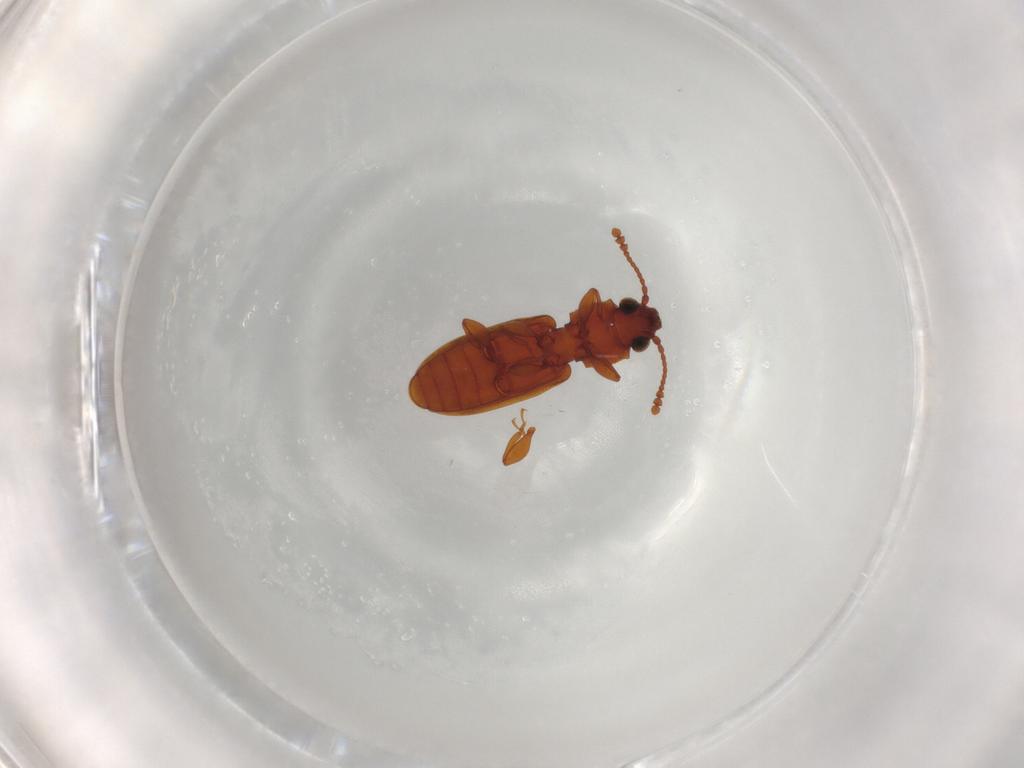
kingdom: Animalia
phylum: Arthropoda
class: Insecta
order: Coleoptera
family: Silvanidae
